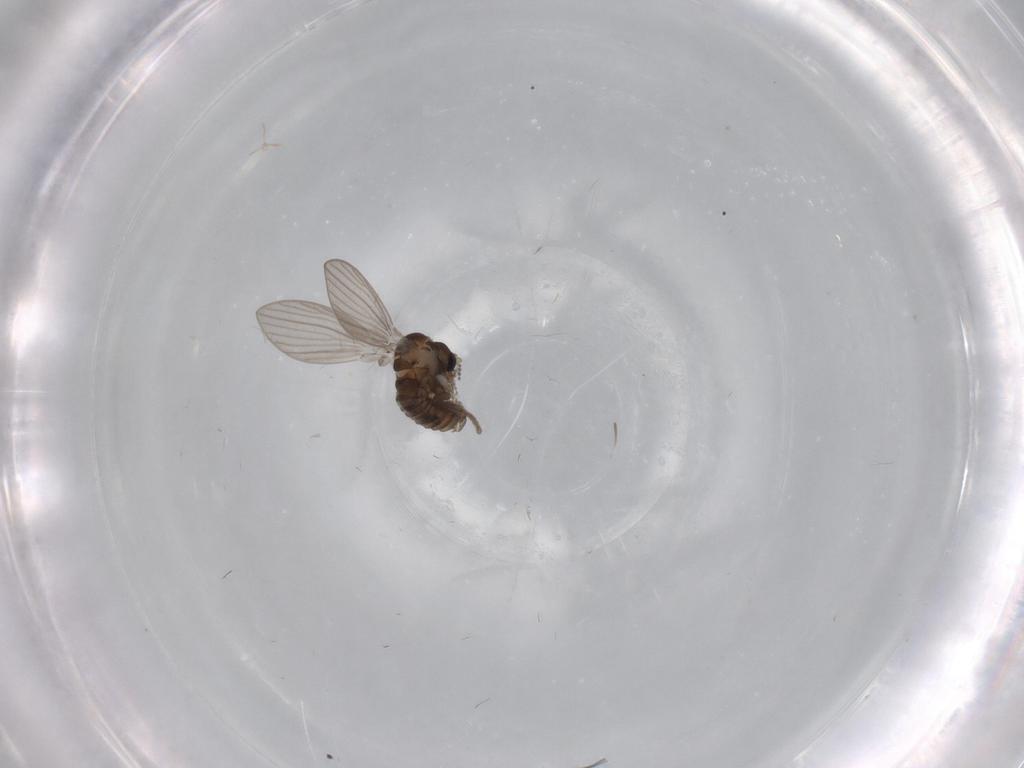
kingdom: Animalia
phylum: Arthropoda
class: Insecta
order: Diptera
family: Psychodidae
